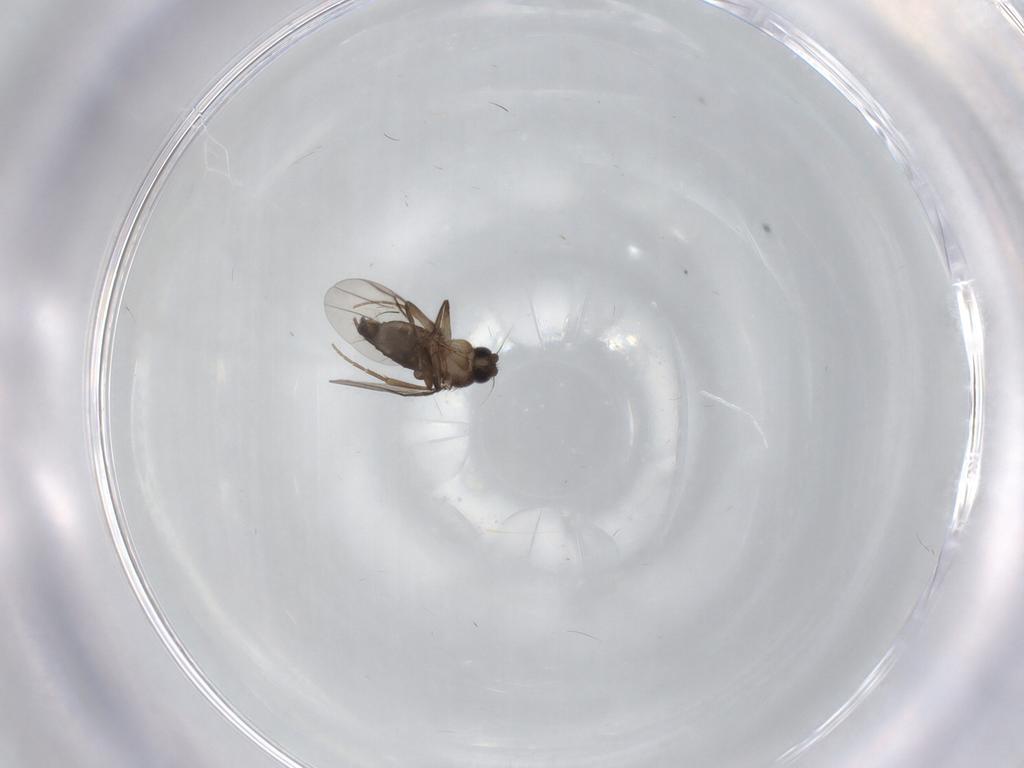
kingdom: Animalia
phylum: Arthropoda
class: Insecta
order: Diptera
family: Phoridae
